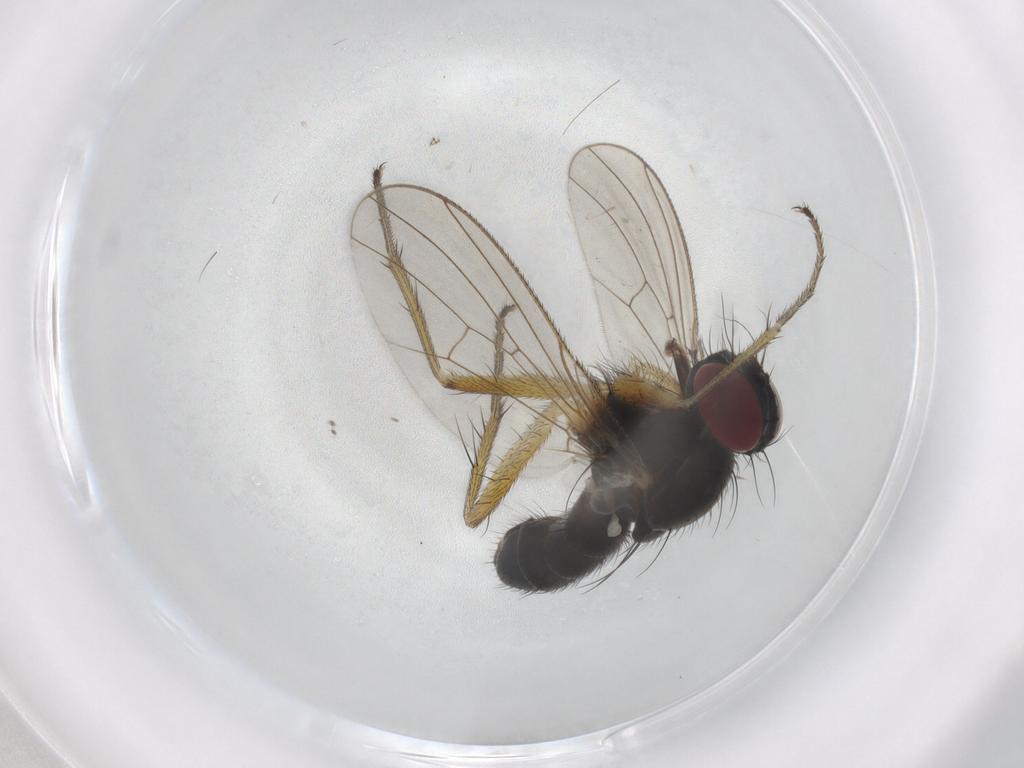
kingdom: Animalia
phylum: Arthropoda
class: Insecta
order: Diptera
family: Muscidae
